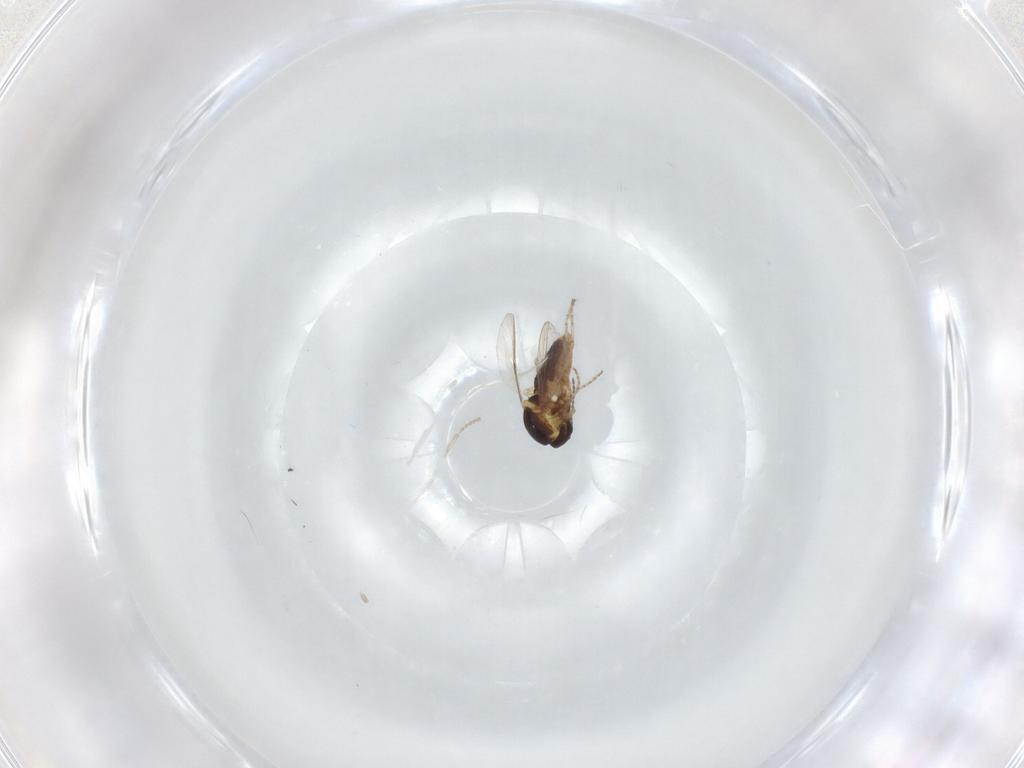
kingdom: Animalia
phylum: Arthropoda
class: Insecta
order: Diptera
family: Ceratopogonidae
